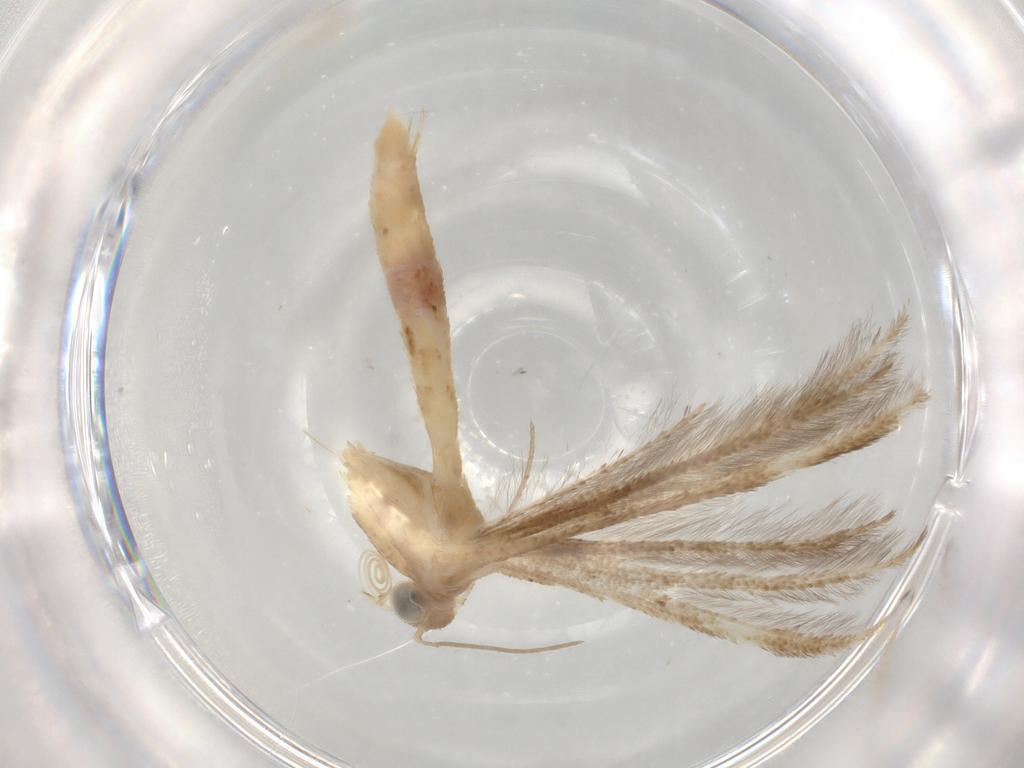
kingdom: Animalia
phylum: Arthropoda
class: Insecta
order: Lepidoptera
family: Pterophoridae
